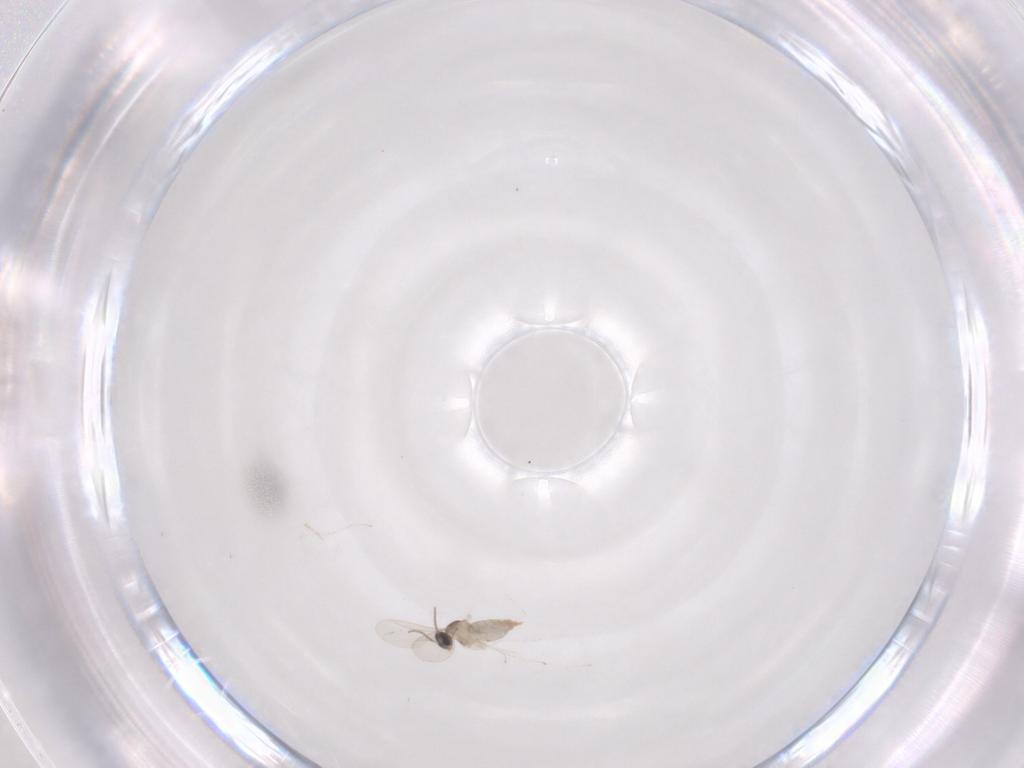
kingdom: Animalia
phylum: Arthropoda
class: Insecta
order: Diptera
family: Cecidomyiidae
